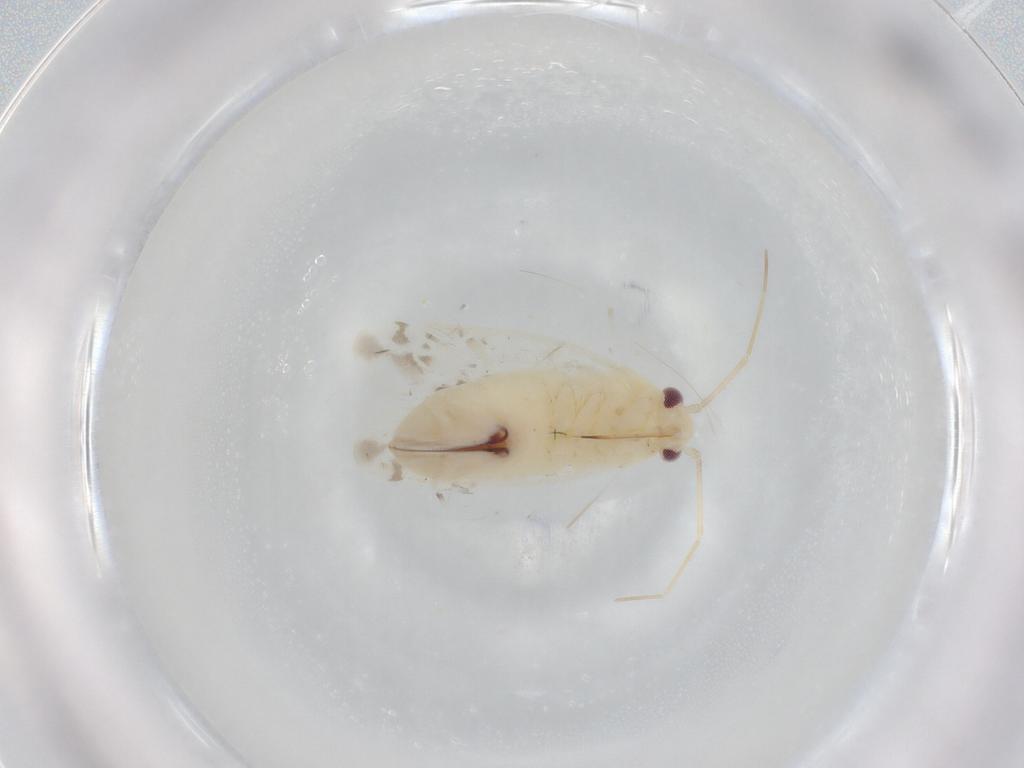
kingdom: Animalia
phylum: Arthropoda
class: Insecta
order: Hemiptera
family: Miridae
